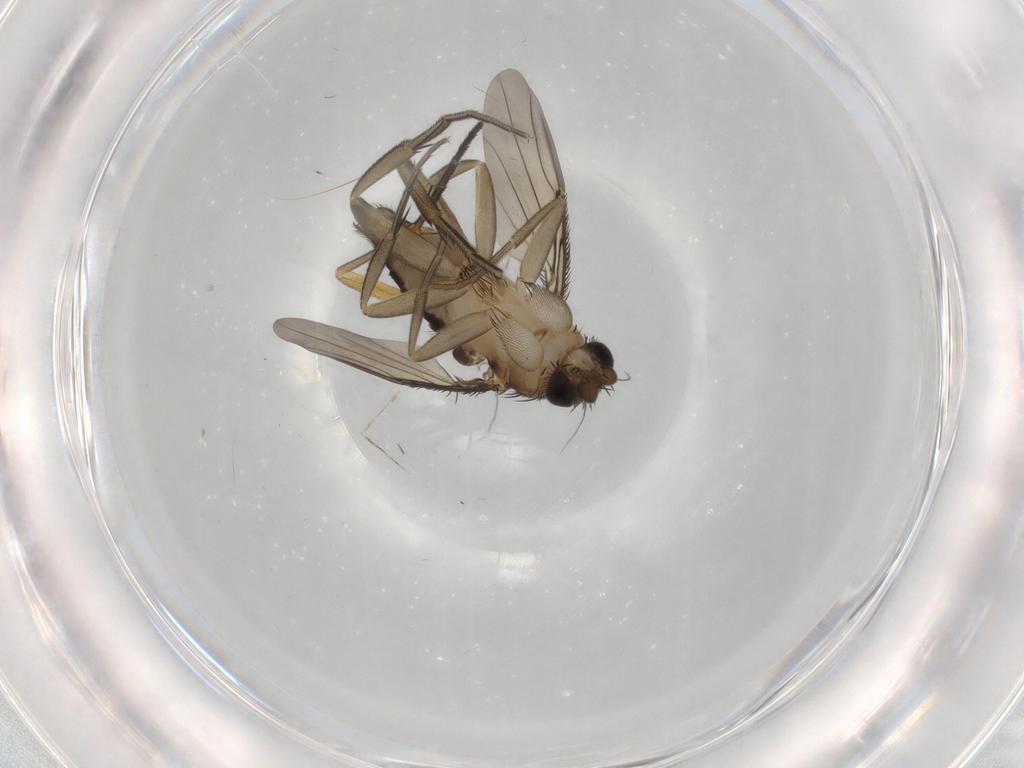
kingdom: Animalia
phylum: Arthropoda
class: Insecta
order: Diptera
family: Phoridae
